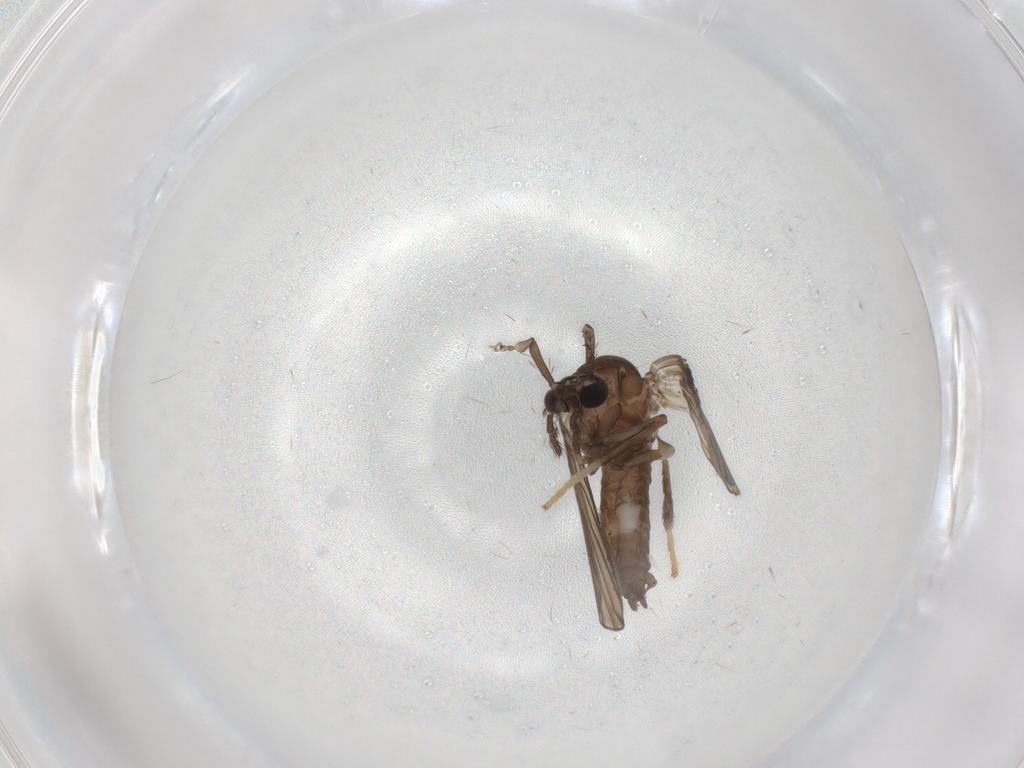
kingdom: Animalia
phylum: Arthropoda
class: Insecta
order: Diptera
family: Psychodidae
